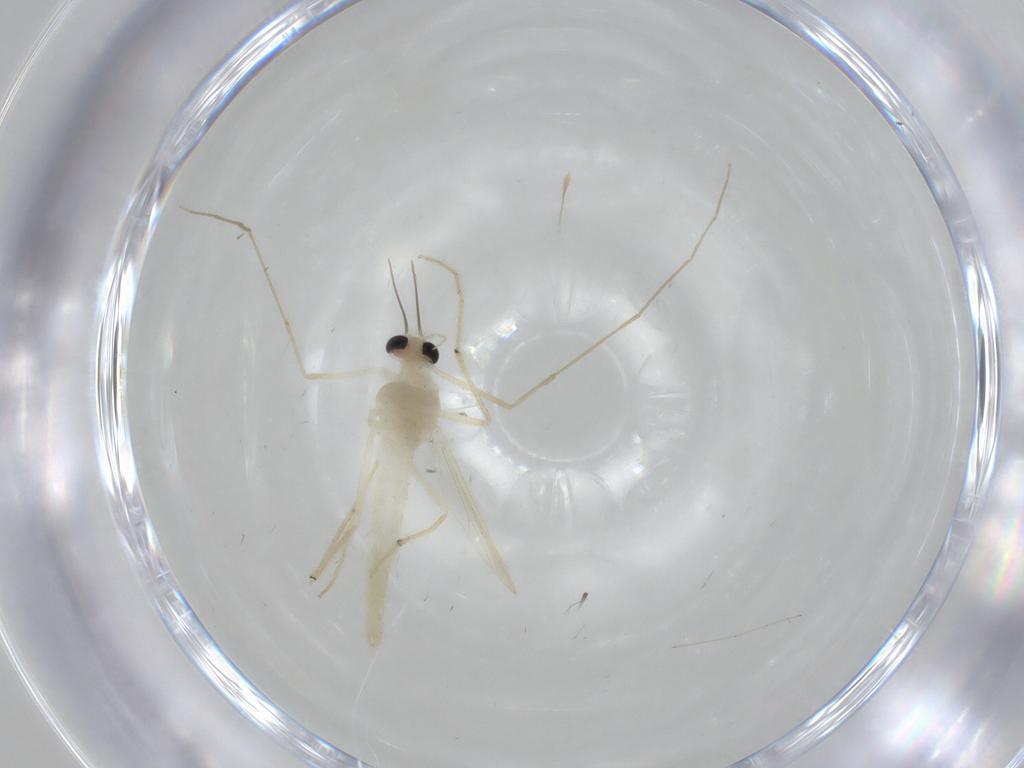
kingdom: Animalia
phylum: Arthropoda
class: Insecta
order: Diptera
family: Chironomidae
